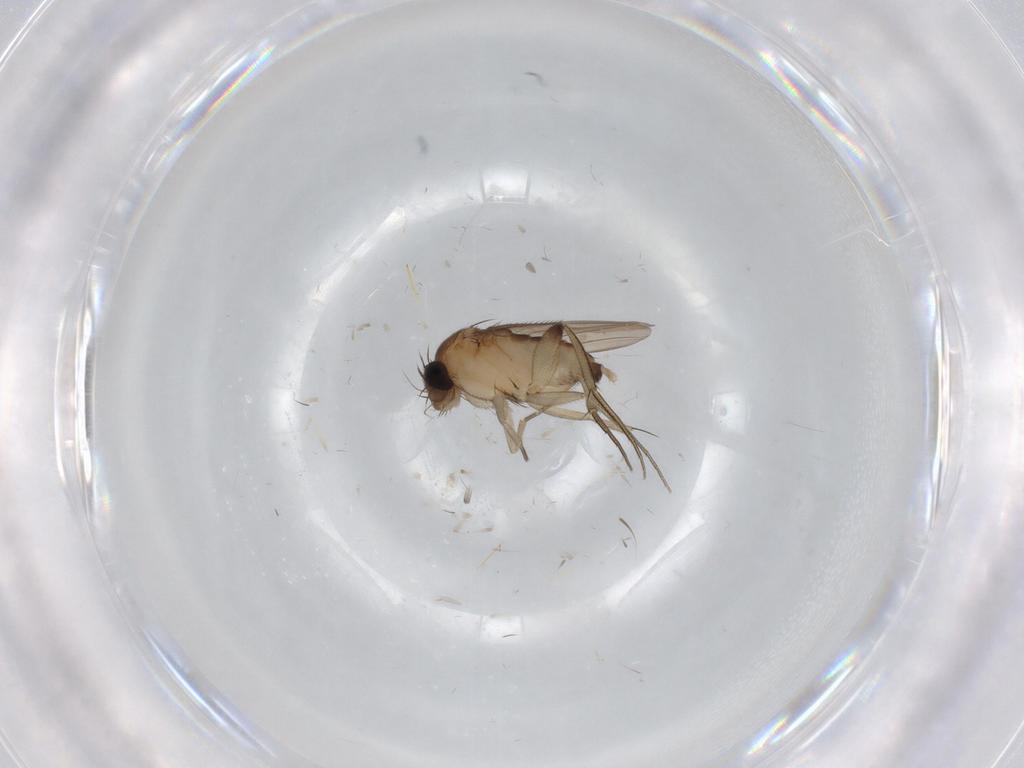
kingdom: Animalia
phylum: Arthropoda
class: Insecta
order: Diptera
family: Phoridae
